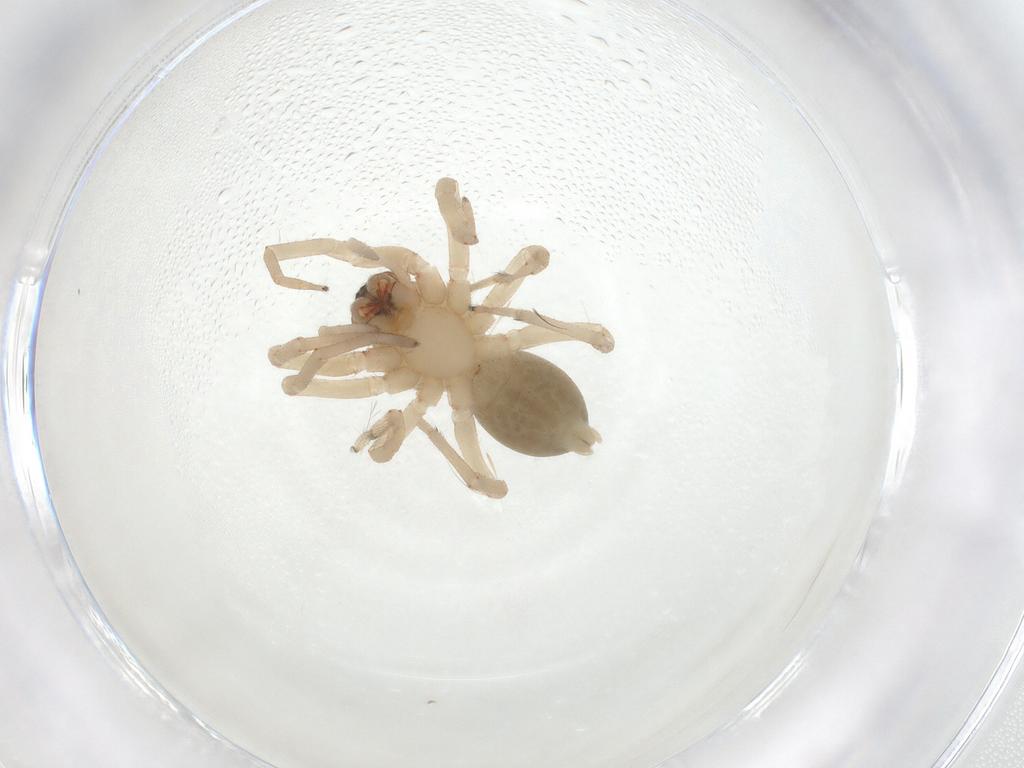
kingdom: Animalia
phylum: Arthropoda
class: Arachnida
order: Araneae
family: Trachelidae
